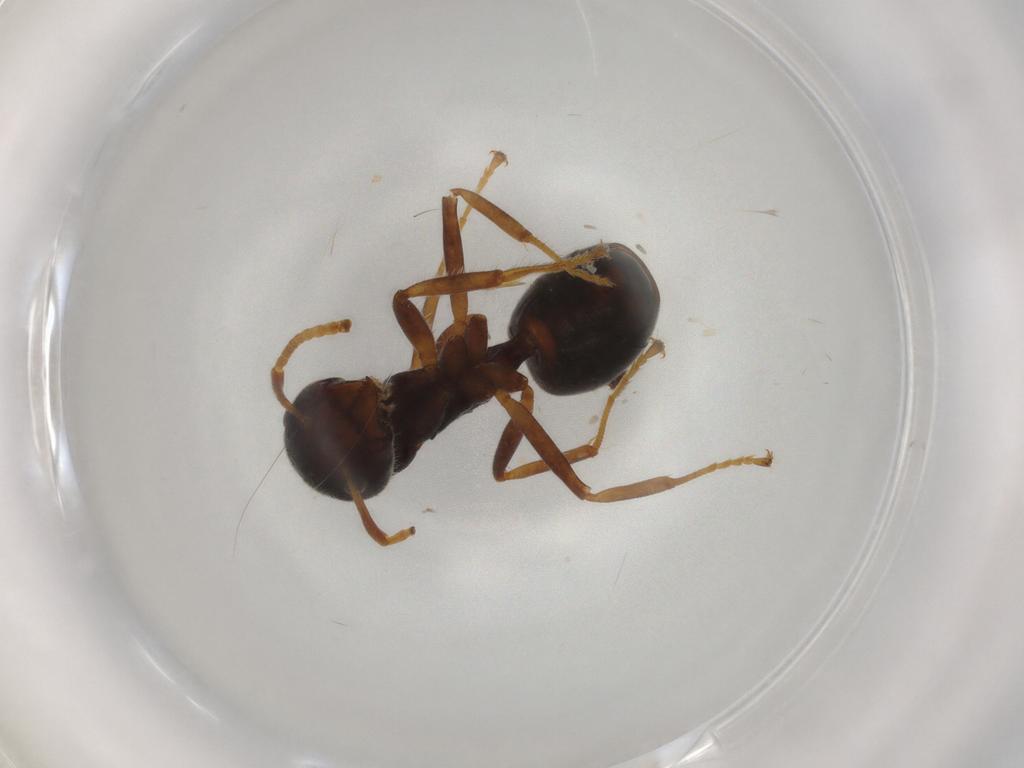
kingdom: Animalia
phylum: Arthropoda
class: Insecta
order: Hymenoptera
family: Formicidae
